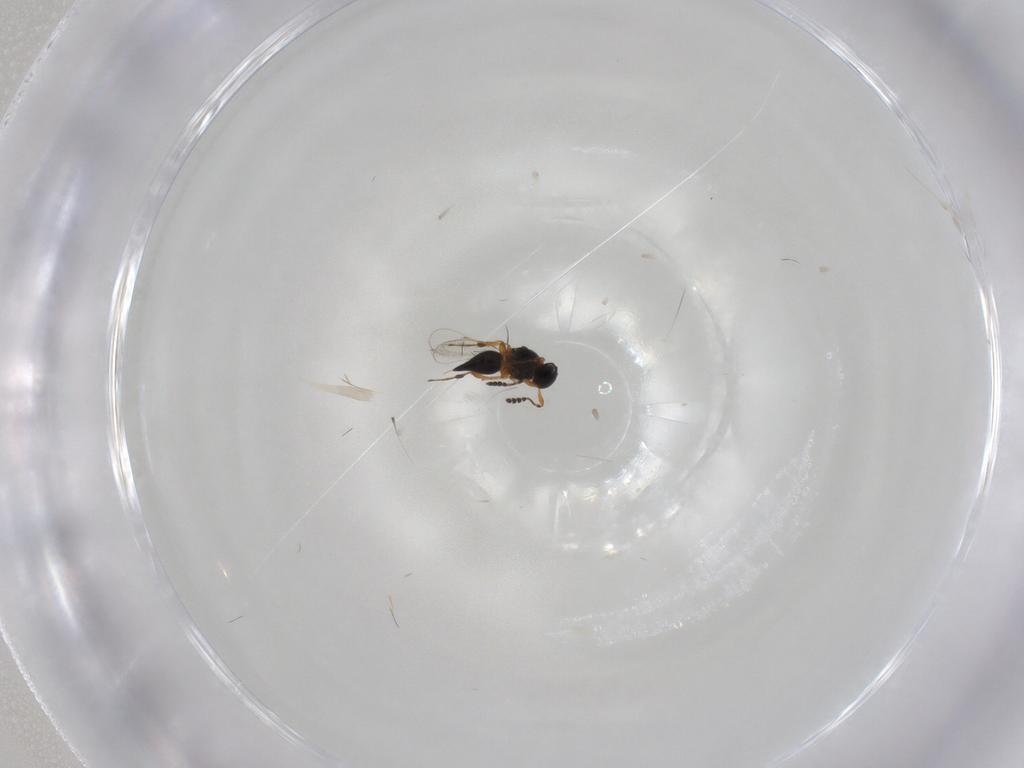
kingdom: Animalia
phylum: Arthropoda
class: Insecta
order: Hymenoptera
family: Platygastridae
